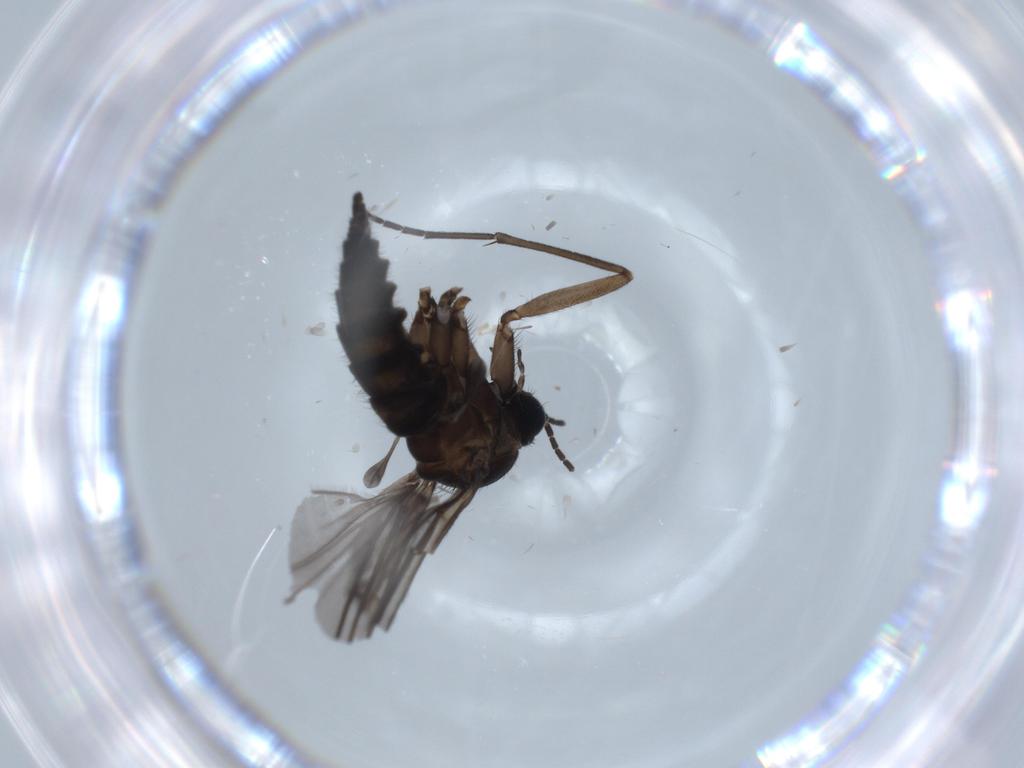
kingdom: Animalia
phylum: Arthropoda
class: Insecta
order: Diptera
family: Sciaridae
